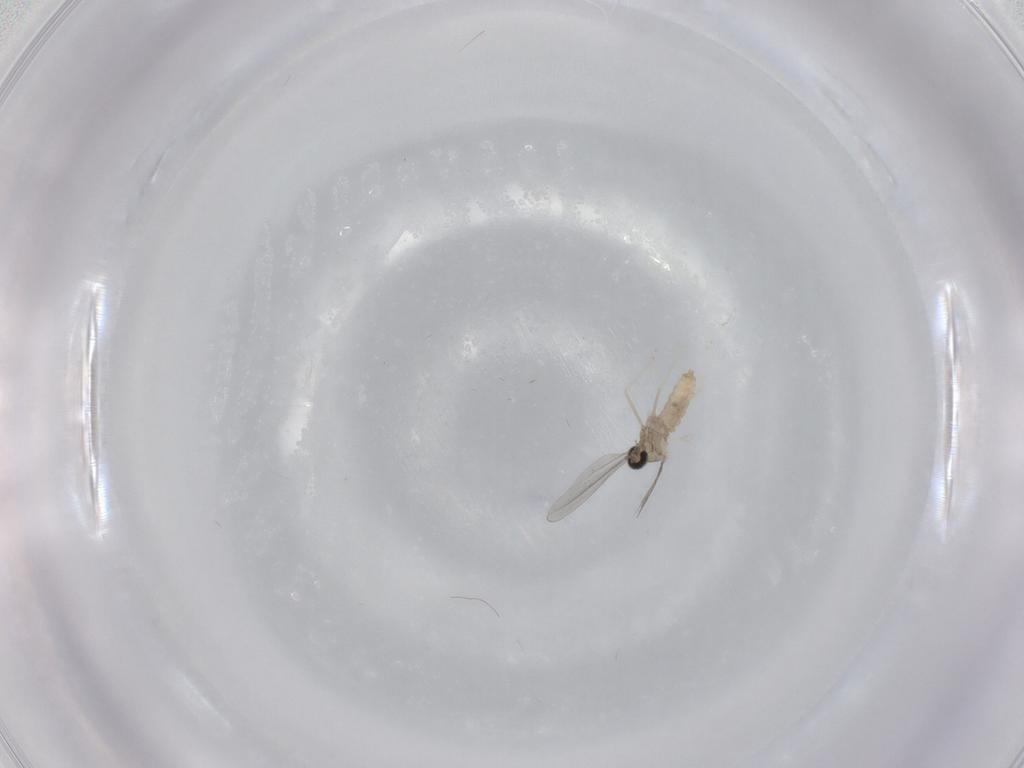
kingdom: Animalia
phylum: Arthropoda
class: Insecta
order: Diptera
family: Cecidomyiidae
